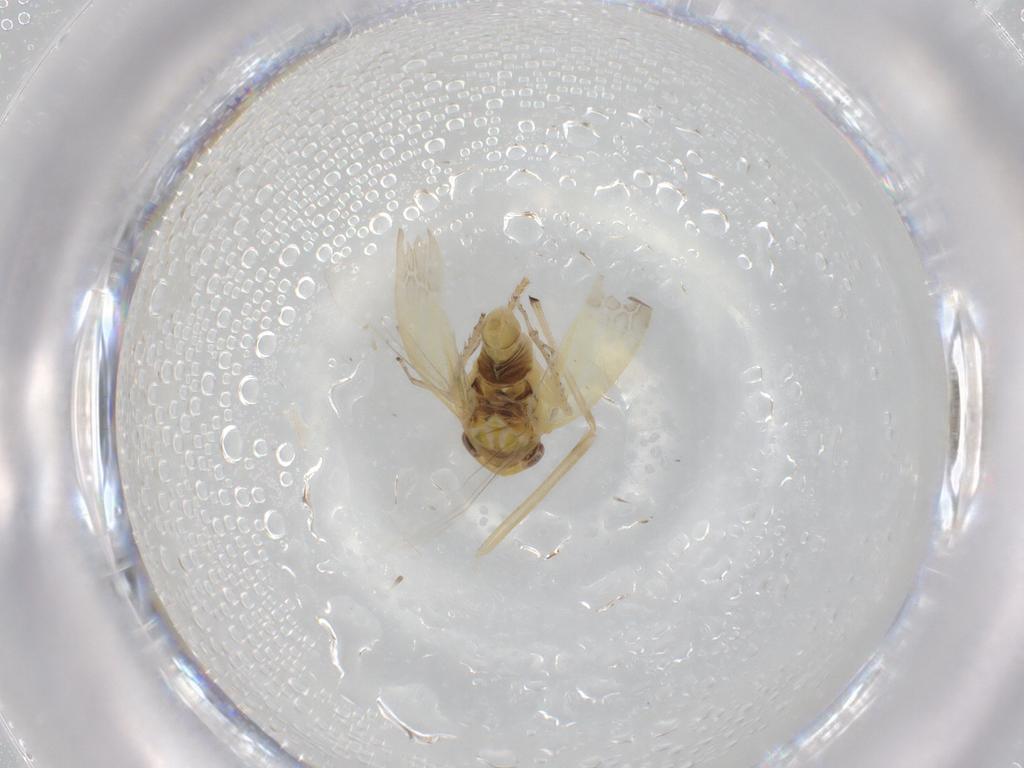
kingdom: Animalia
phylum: Arthropoda
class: Insecta
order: Hemiptera
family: Cicadellidae
